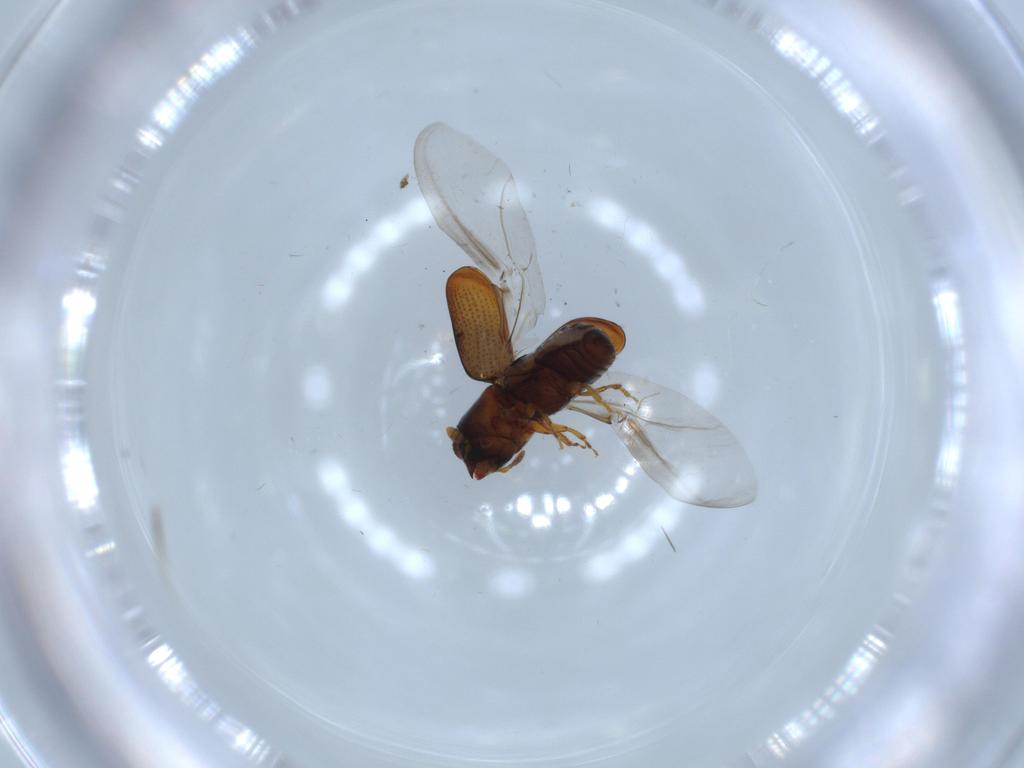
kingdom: Animalia
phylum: Arthropoda
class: Insecta
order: Coleoptera
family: Curculionidae
